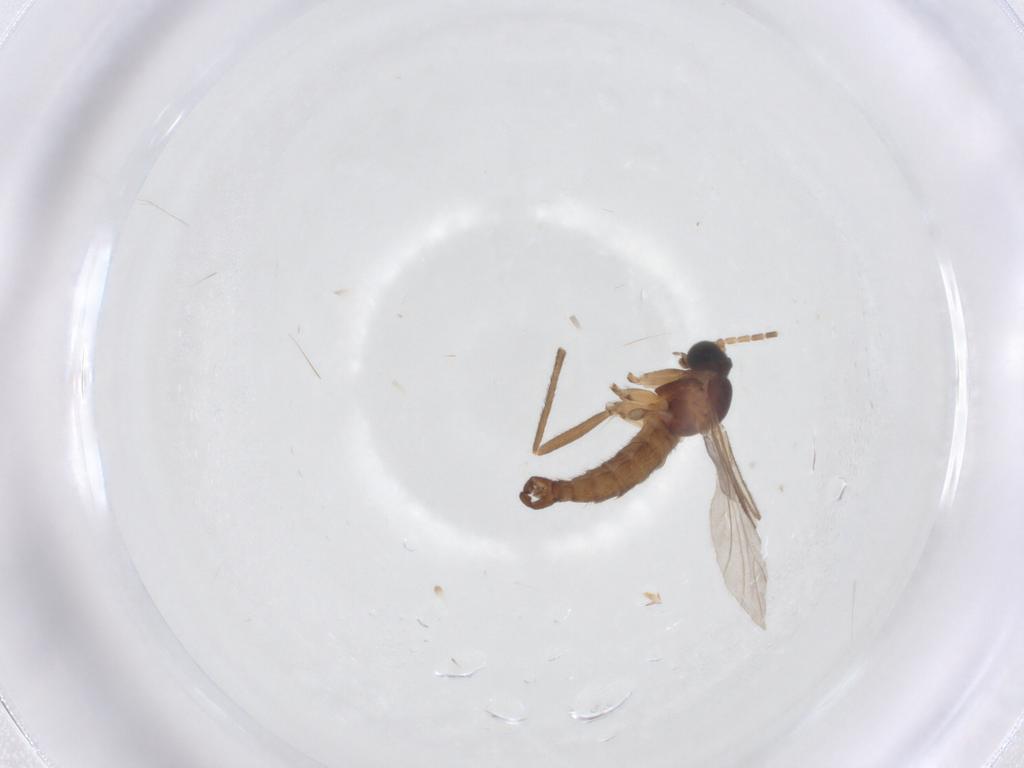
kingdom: Animalia
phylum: Arthropoda
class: Insecta
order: Diptera
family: Sciaridae
